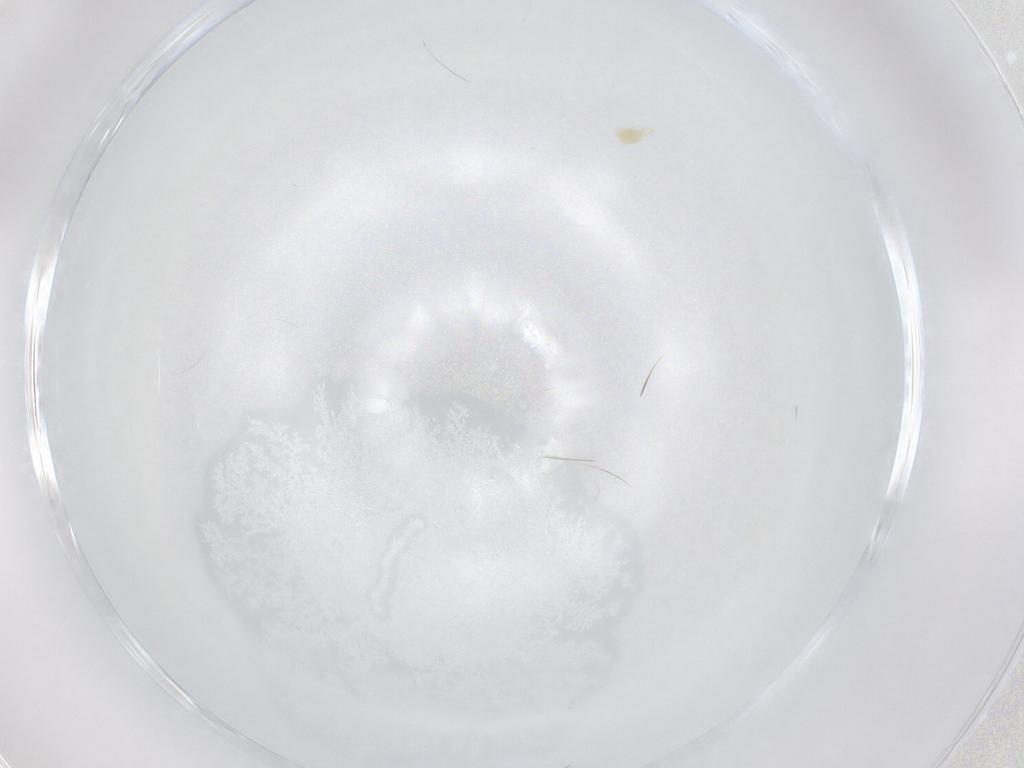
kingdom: Animalia
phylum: Arthropoda
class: Arachnida
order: Trombidiformes
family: Eupodidae
